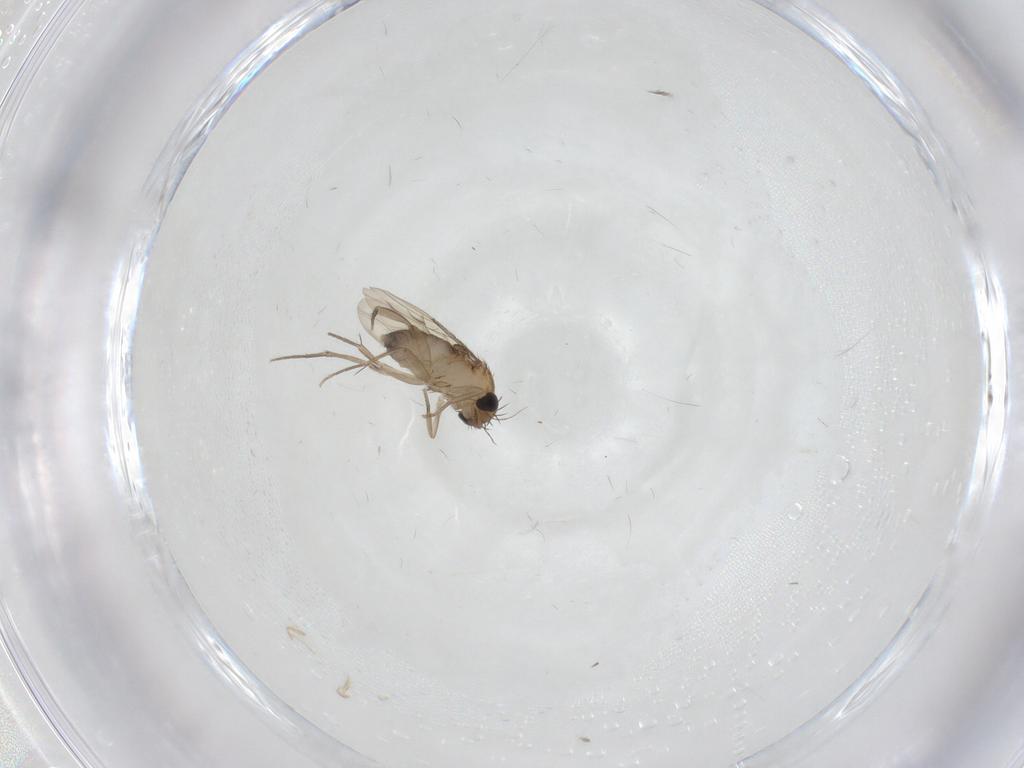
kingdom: Animalia
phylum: Arthropoda
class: Insecta
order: Diptera
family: Phoridae
